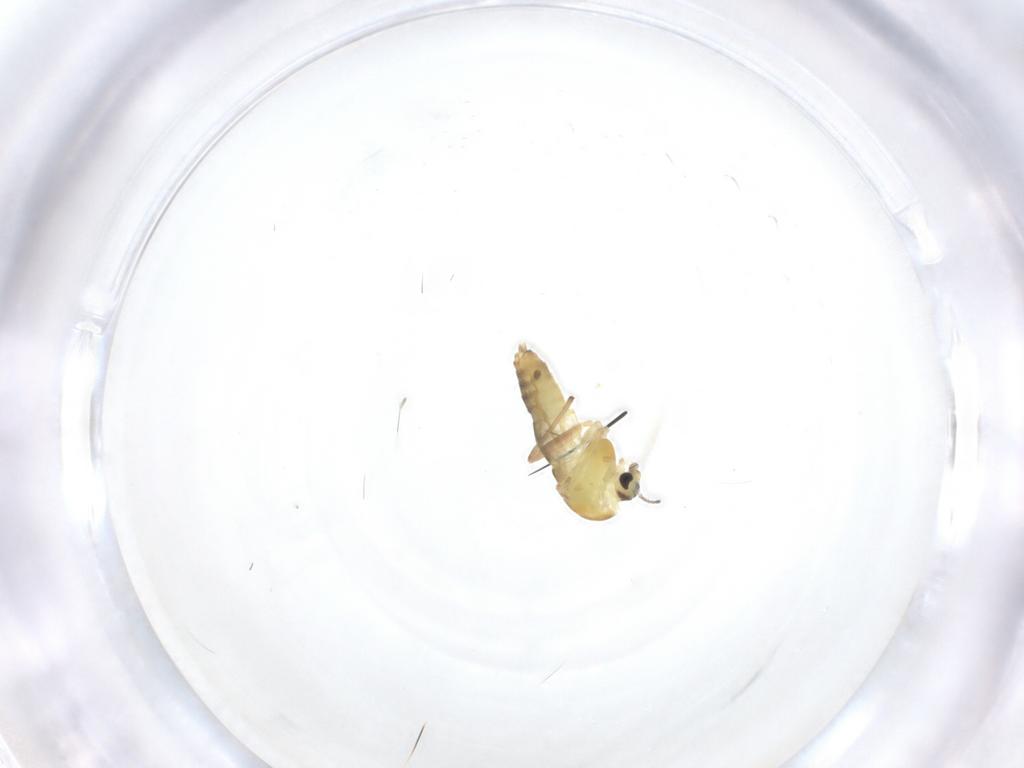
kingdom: Animalia
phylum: Arthropoda
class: Insecta
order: Diptera
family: Chironomidae
